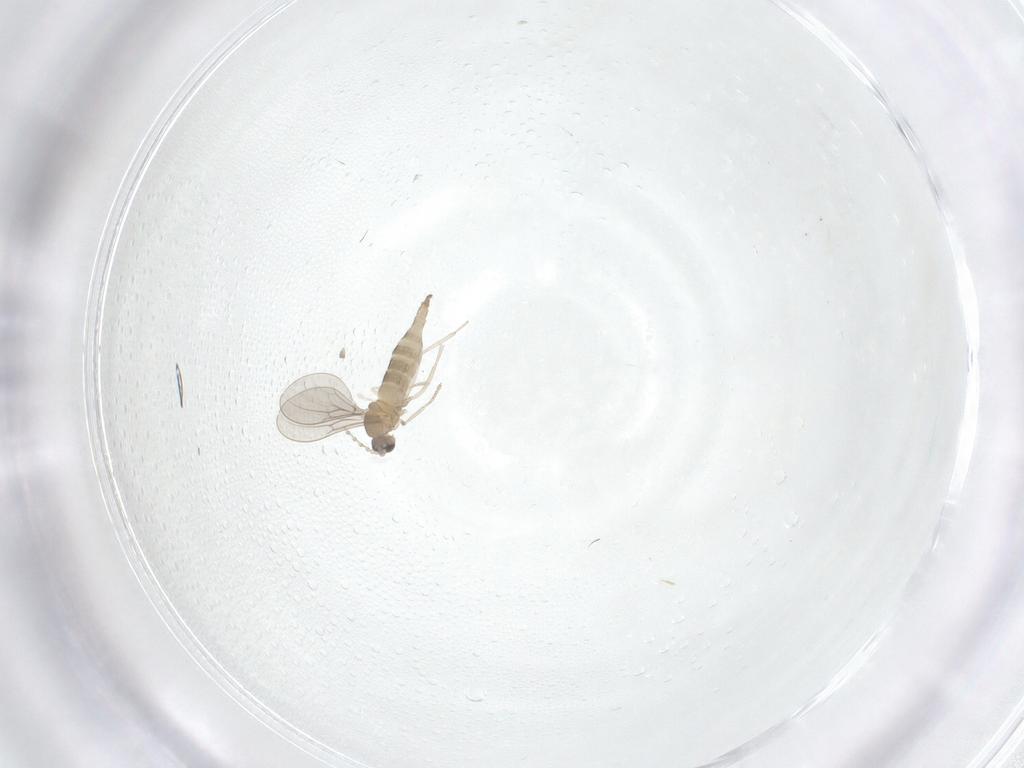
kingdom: Animalia
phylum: Arthropoda
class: Insecta
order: Diptera
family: Cecidomyiidae
